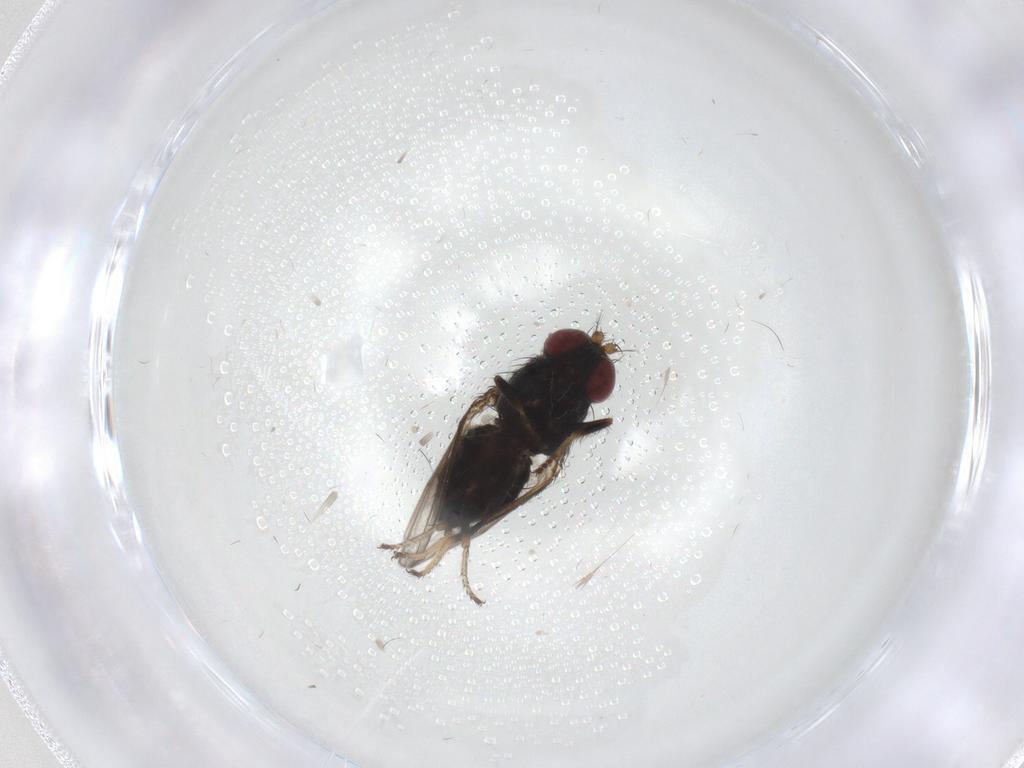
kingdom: Animalia
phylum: Arthropoda
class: Insecta
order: Diptera
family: Ephydridae
